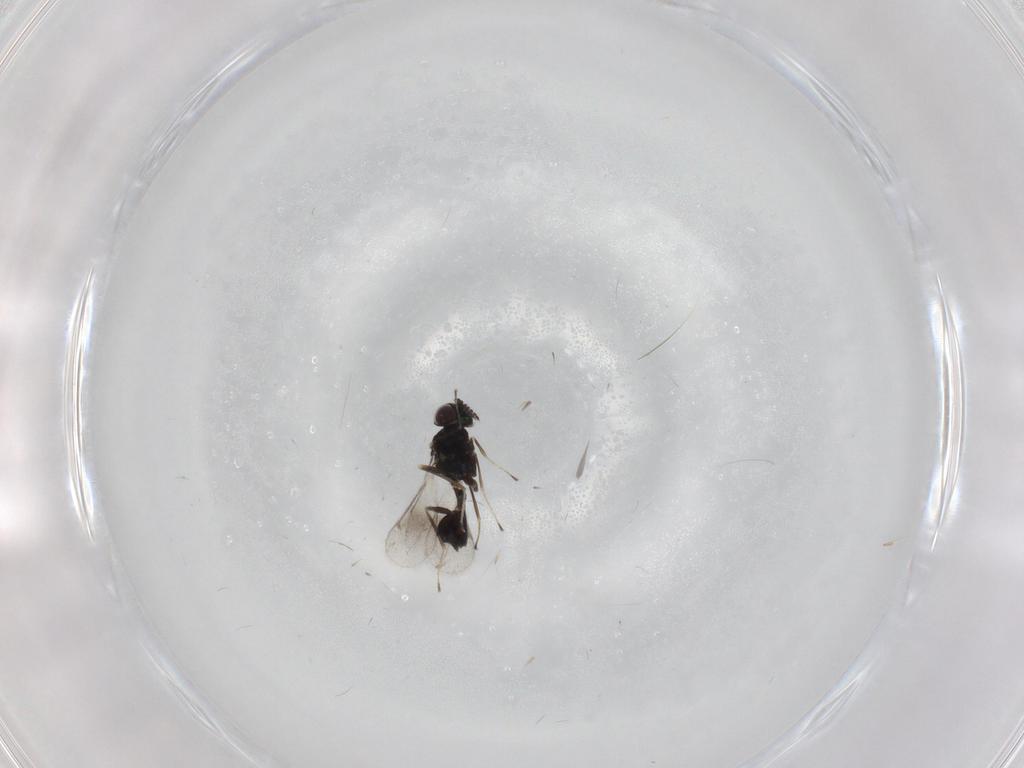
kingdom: Animalia
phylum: Arthropoda
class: Insecta
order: Hymenoptera
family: Eulophidae
